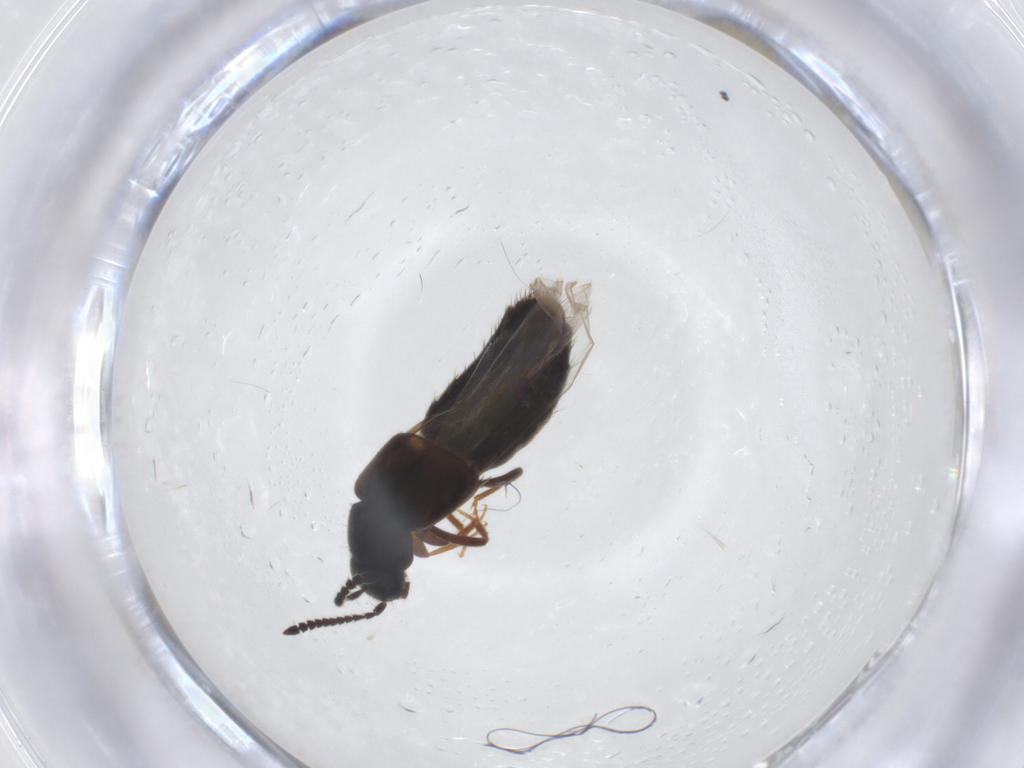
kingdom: Animalia
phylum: Arthropoda
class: Insecta
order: Coleoptera
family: Staphylinidae
